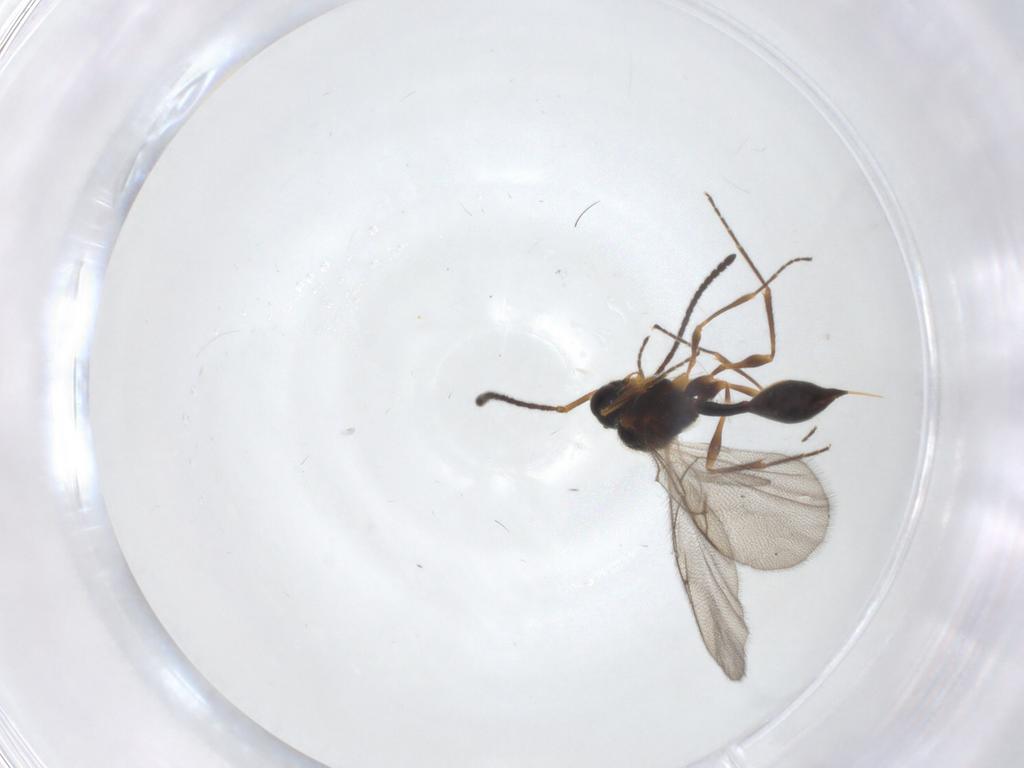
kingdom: Animalia
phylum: Arthropoda
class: Insecta
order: Hymenoptera
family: Diapriidae
